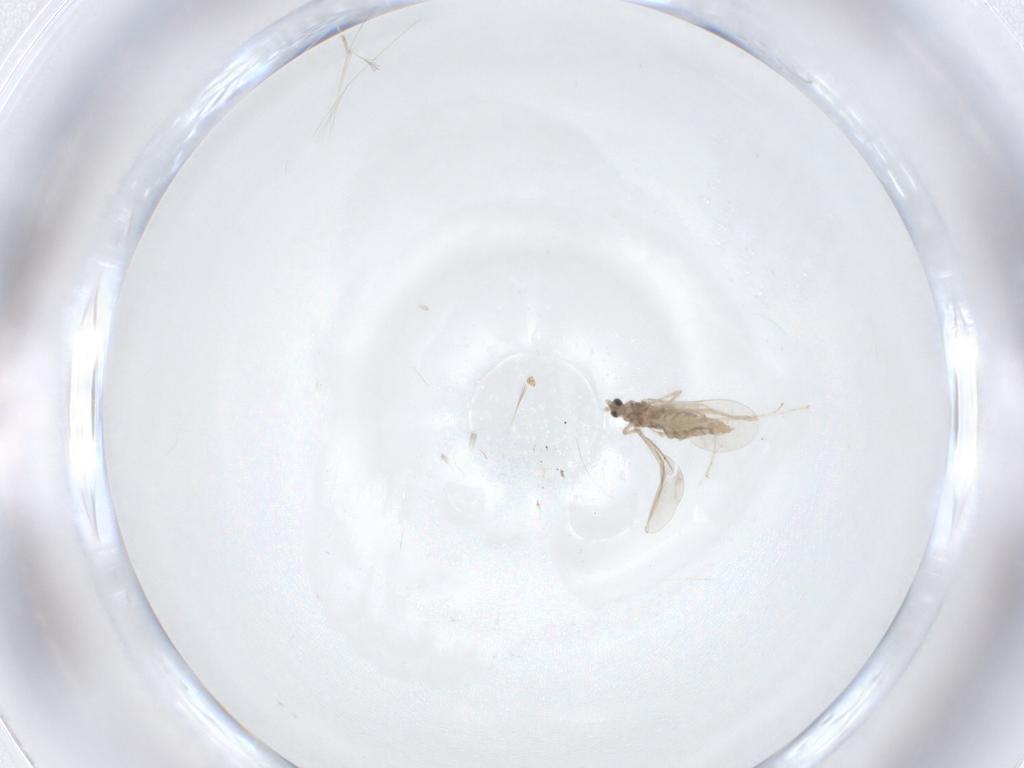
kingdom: Animalia
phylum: Arthropoda
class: Insecta
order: Diptera
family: Cecidomyiidae
